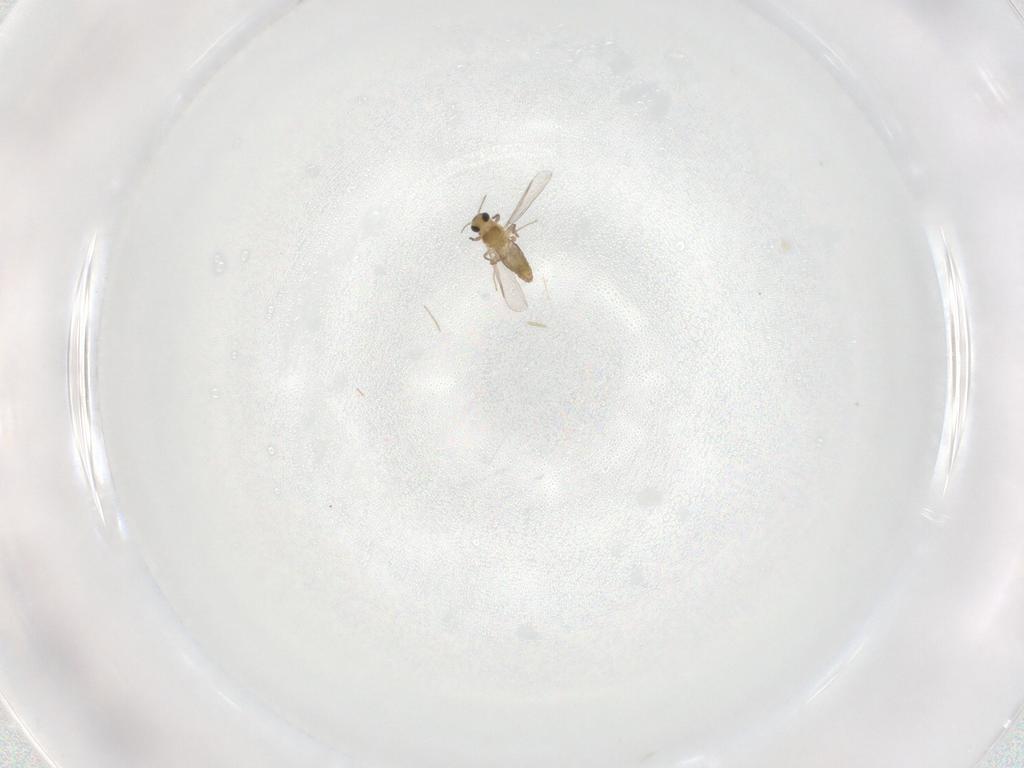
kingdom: Animalia
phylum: Arthropoda
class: Insecta
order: Diptera
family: Chironomidae
